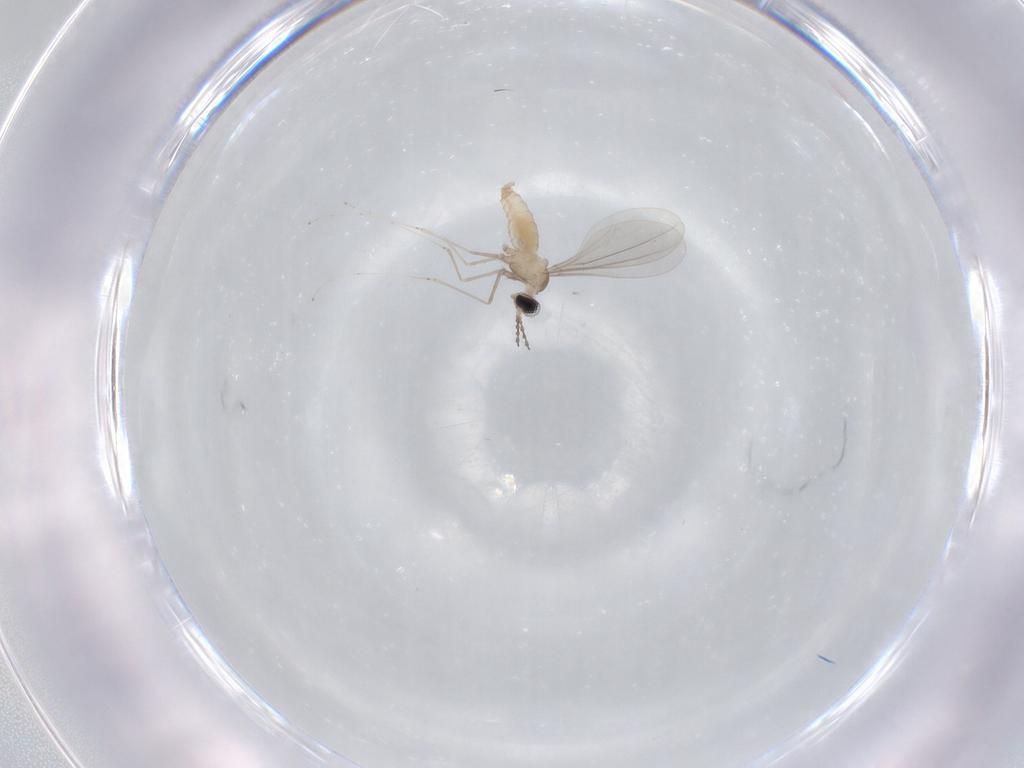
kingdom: Animalia
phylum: Arthropoda
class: Insecta
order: Diptera
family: Cecidomyiidae
